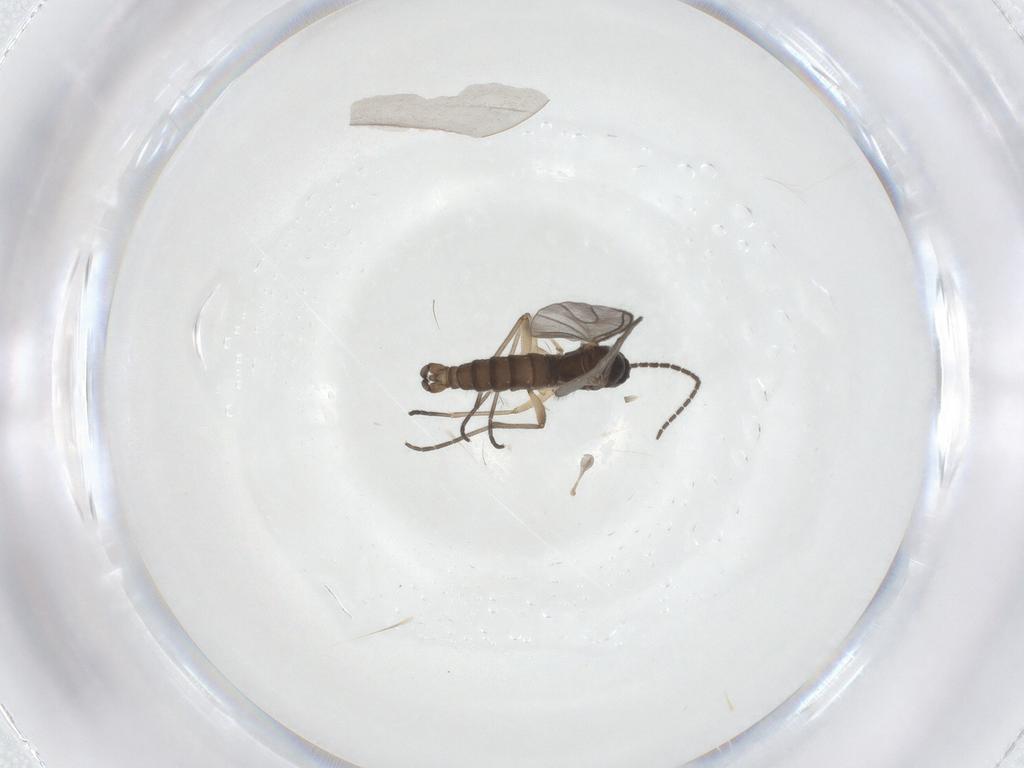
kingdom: Animalia
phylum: Arthropoda
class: Insecta
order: Diptera
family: Sciaridae
